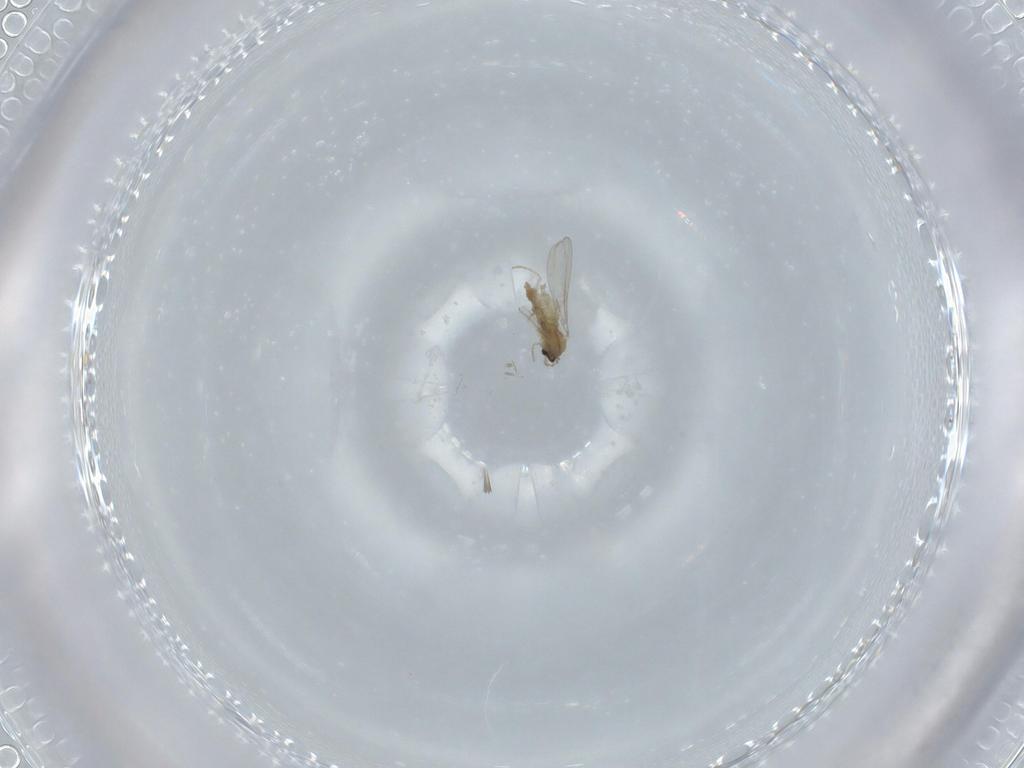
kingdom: Animalia
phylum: Arthropoda
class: Insecta
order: Diptera
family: Cecidomyiidae
